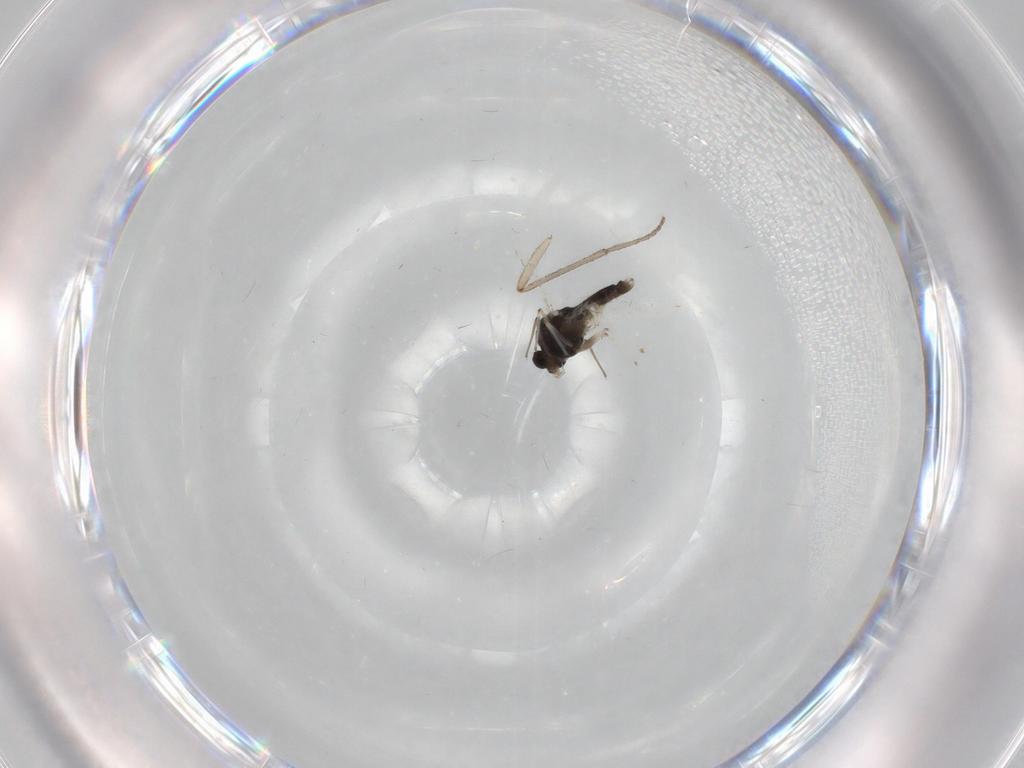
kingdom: Animalia
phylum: Arthropoda
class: Insecta
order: Diptera
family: Chironomidae
